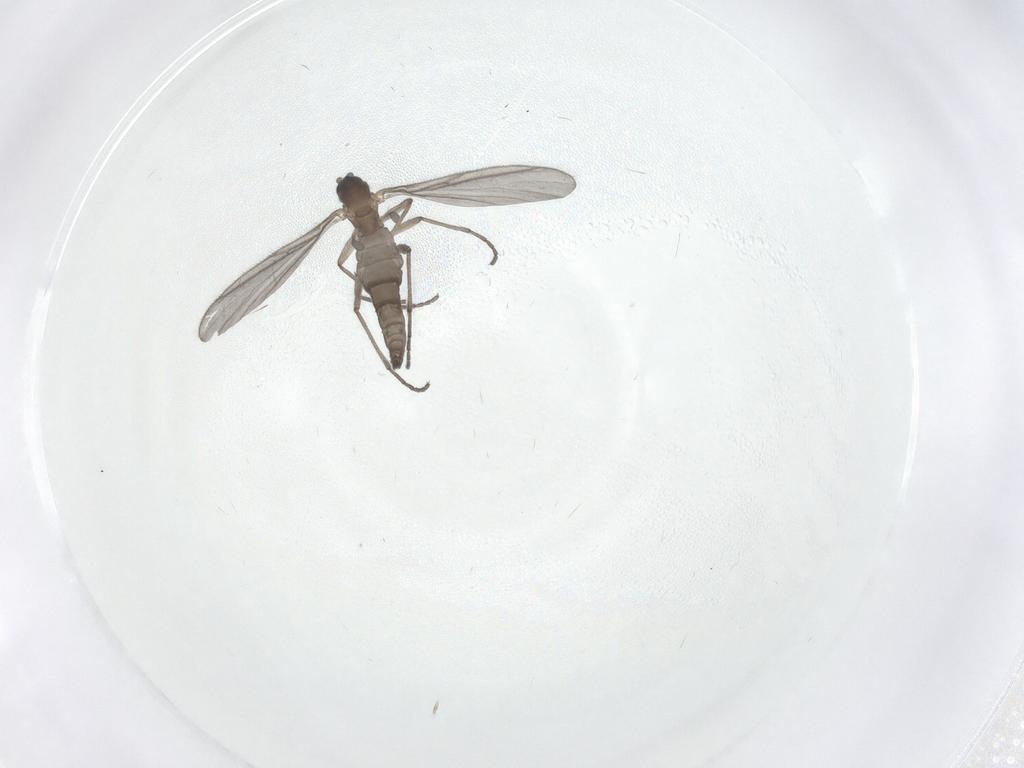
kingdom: Animalia
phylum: Arthropoda
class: Insecta
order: Diptera
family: Sciaridae
